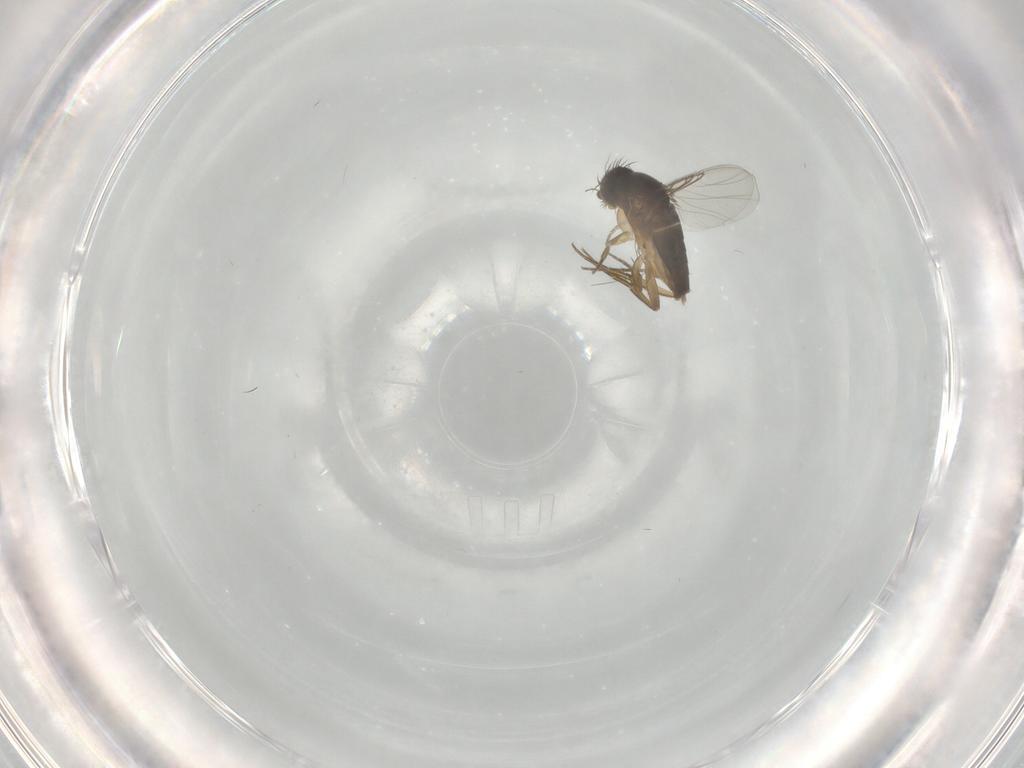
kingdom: Animalia
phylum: Arthropoda
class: Insecta
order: Diptera
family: Phoridae
